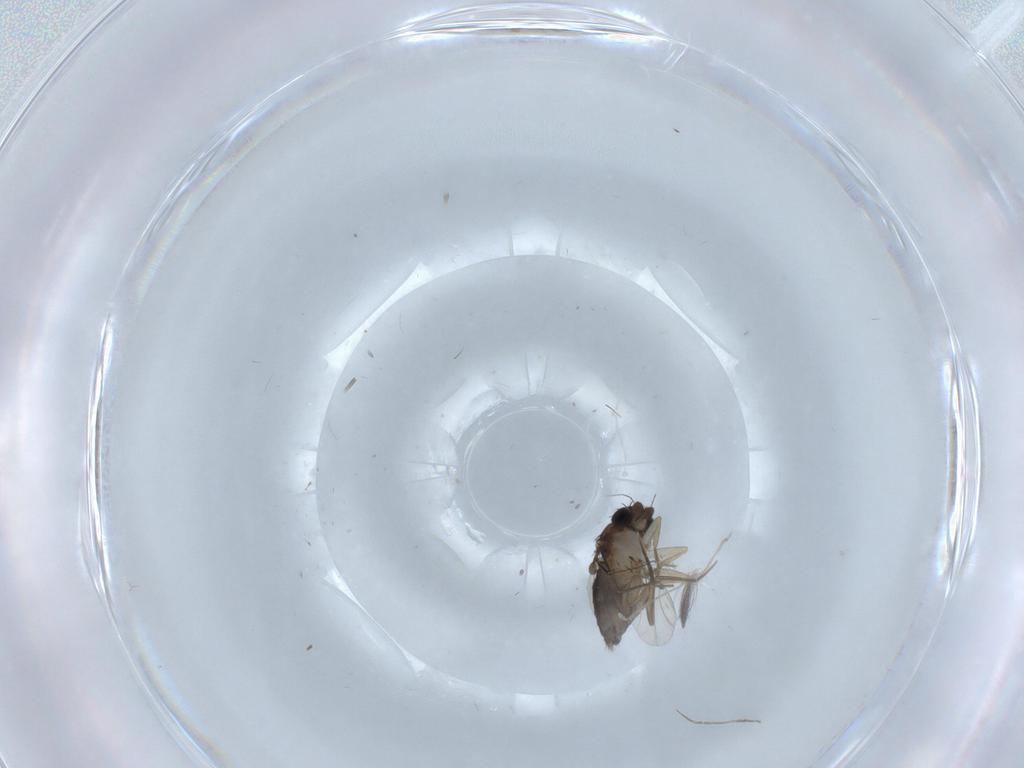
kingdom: Animalia
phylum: Arthropoda
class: Insecta
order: Diptera
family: Phoridae
